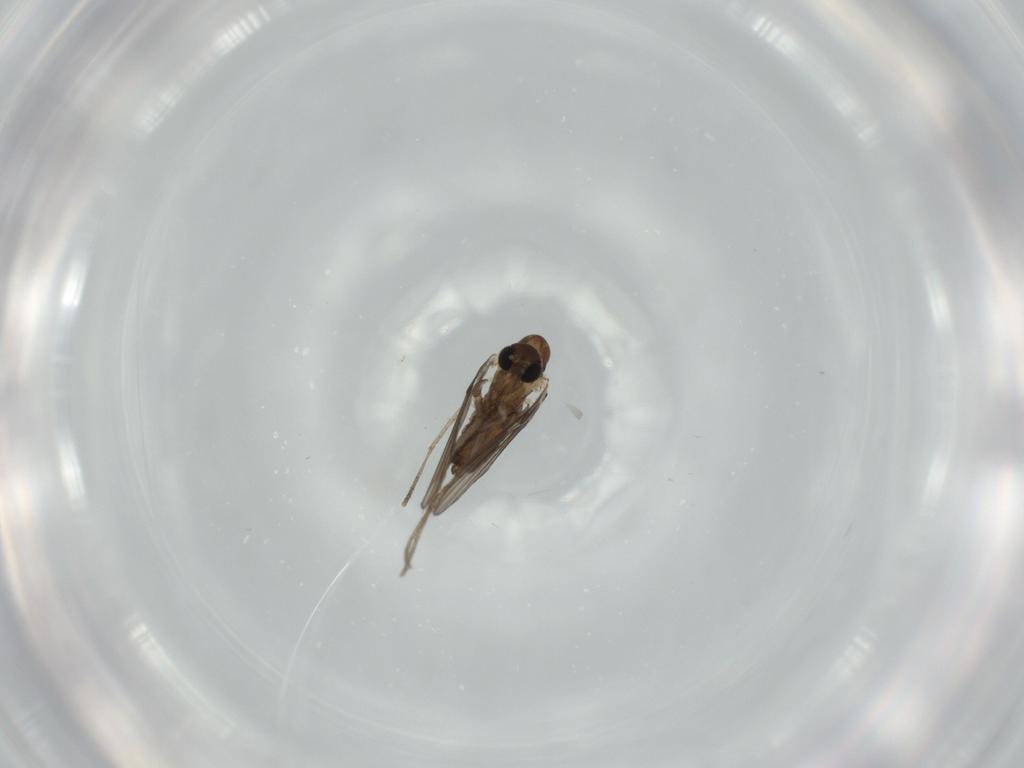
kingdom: Animalia
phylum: Arthropoda
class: Insecta
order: Diptera
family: Psychodidae
